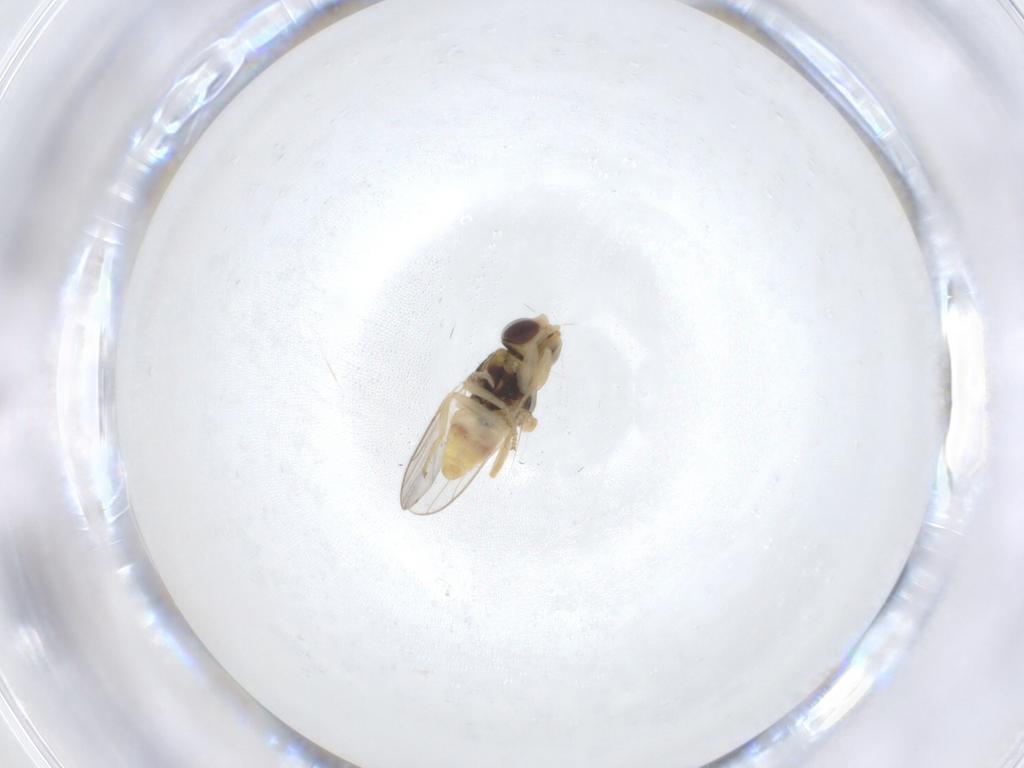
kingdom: Animalia
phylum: Arthropoda
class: Insecta
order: Diptera
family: Chloropidae
